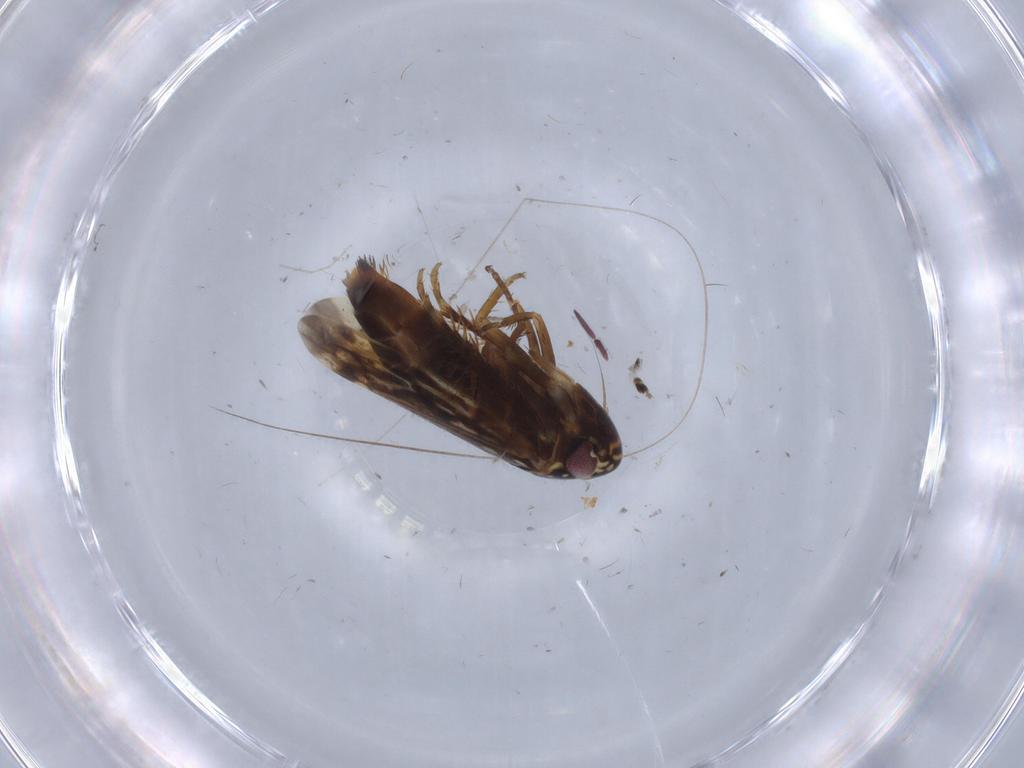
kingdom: Animalia
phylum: Arthropoda
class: Insecta
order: Hemiptera
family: Cicadellidae
